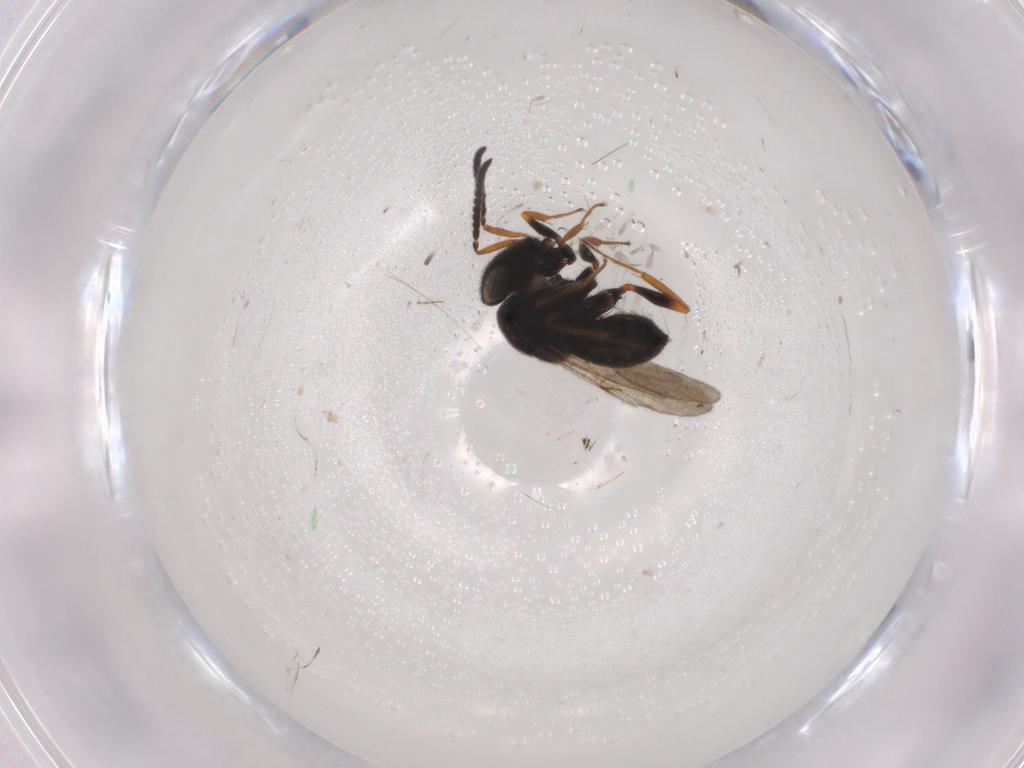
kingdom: Animalia
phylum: Arthropoda
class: Insecta
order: Hymenoptera
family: Scelionidae
